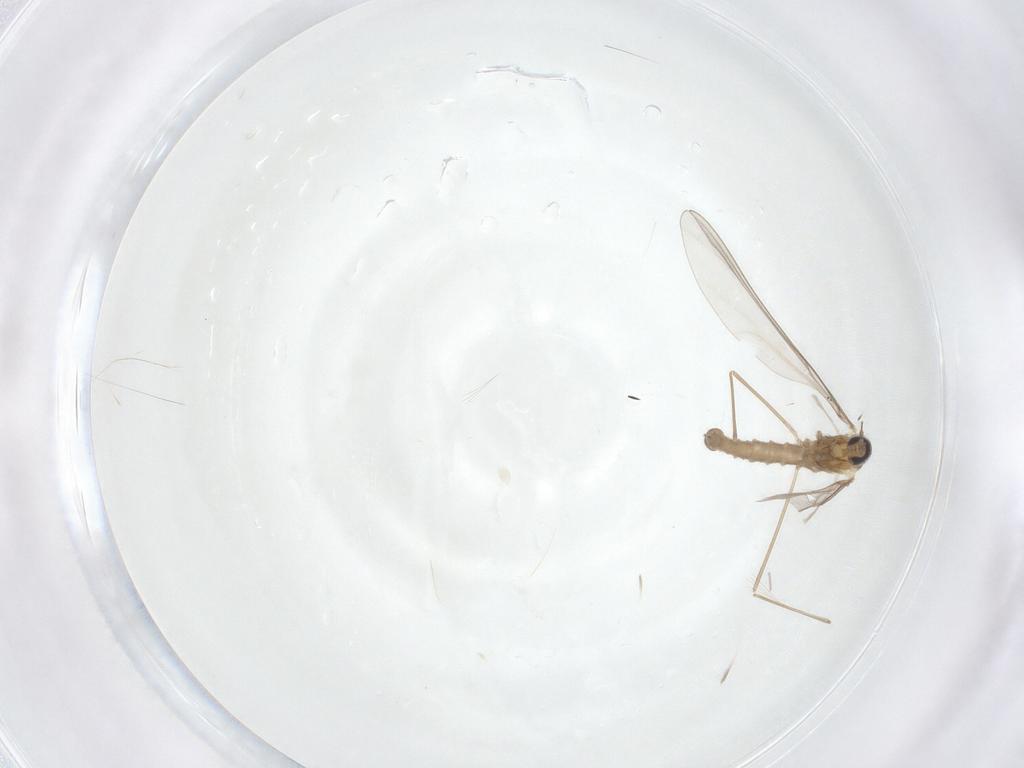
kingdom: Animalia
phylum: Arthropoda
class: Insecta
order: Diptera
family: Cecidomyiidae
